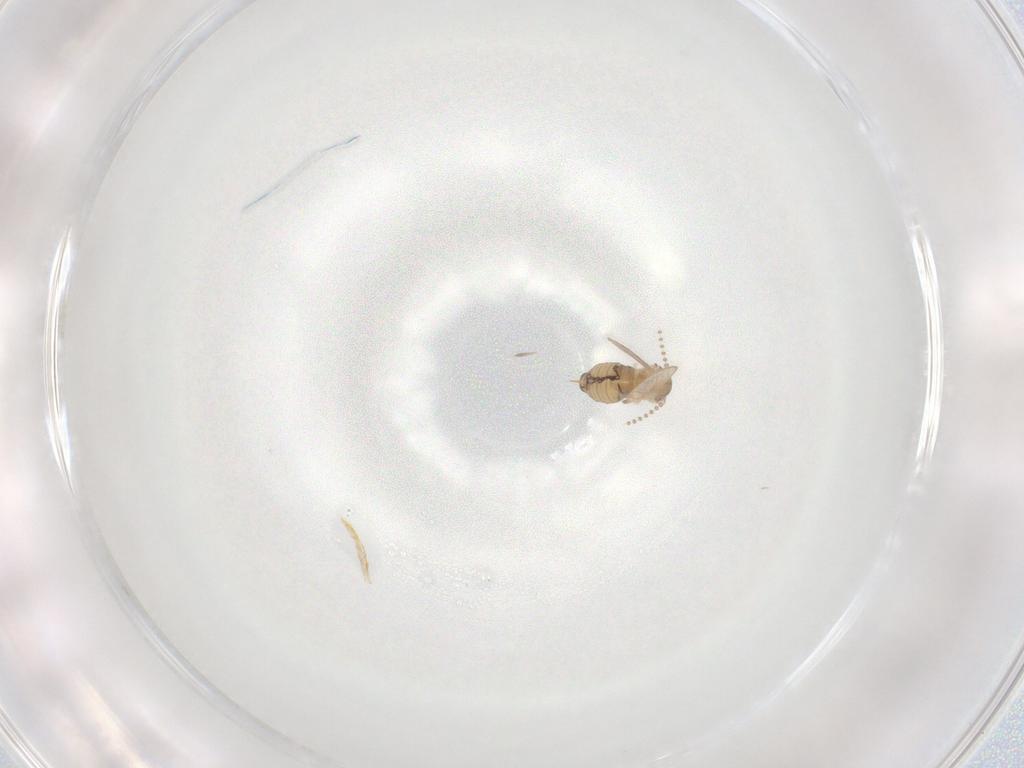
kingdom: Animalia
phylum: Arthropoda
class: Insecta
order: Diptera
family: Psychodidae
